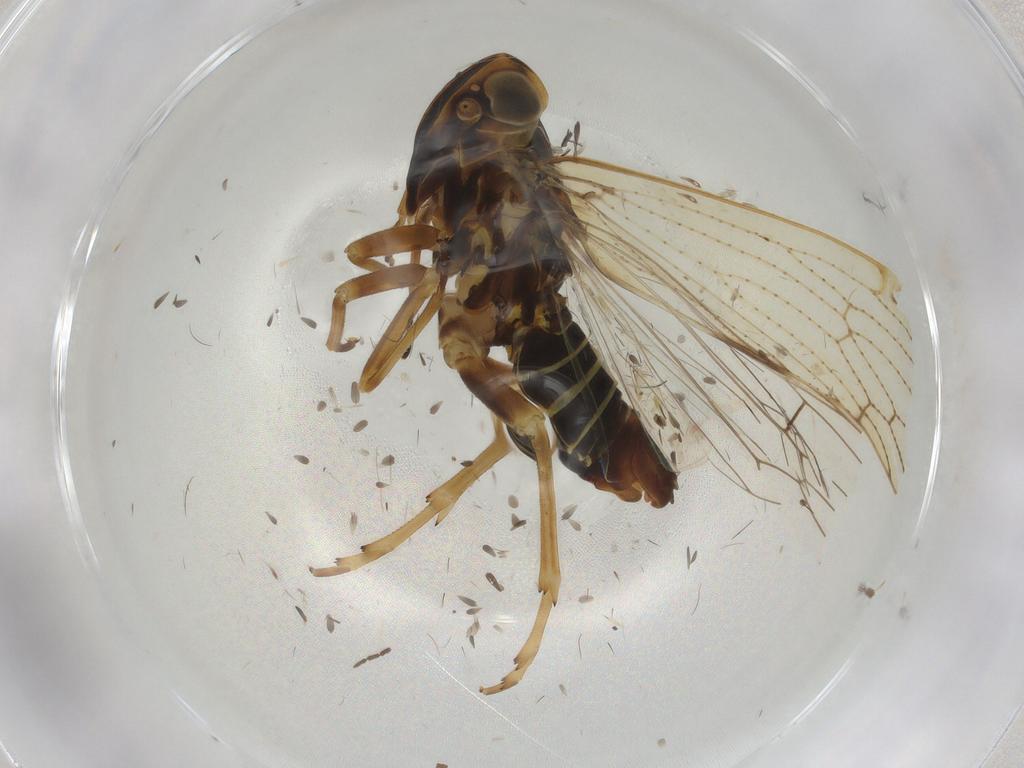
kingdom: Animalia
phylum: Arthropoda
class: Insecta
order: Hemiptera
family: Cixiidae
